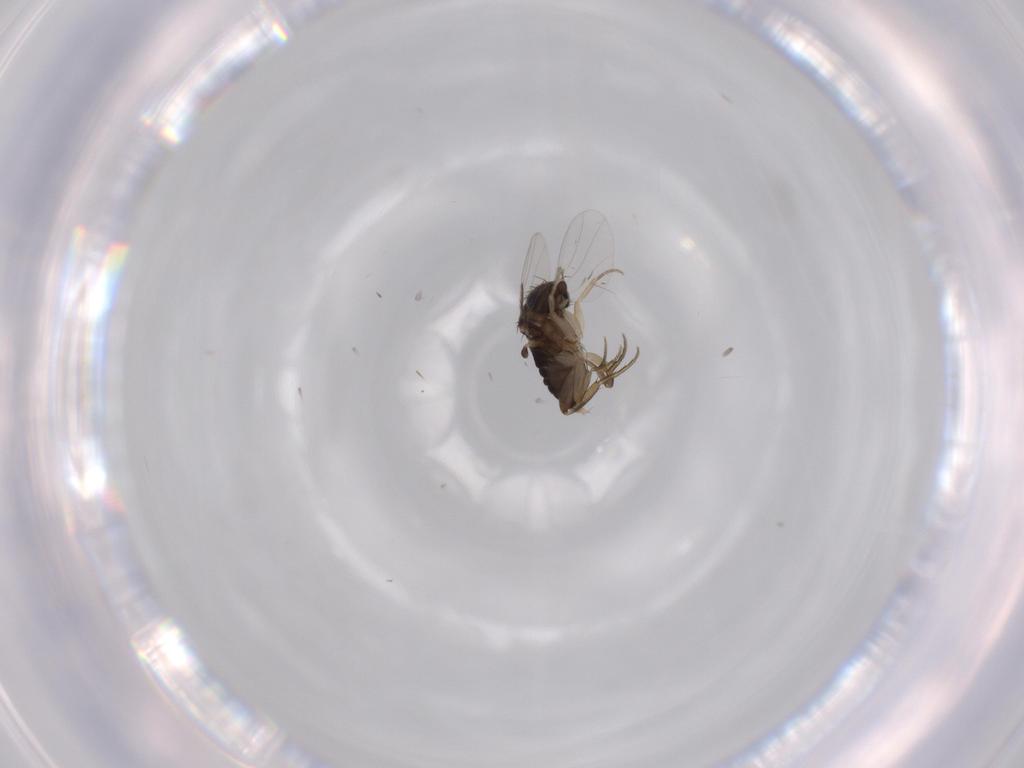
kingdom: Animalia
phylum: Arthropoda
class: Insecta
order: Diptera
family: Phoridae
